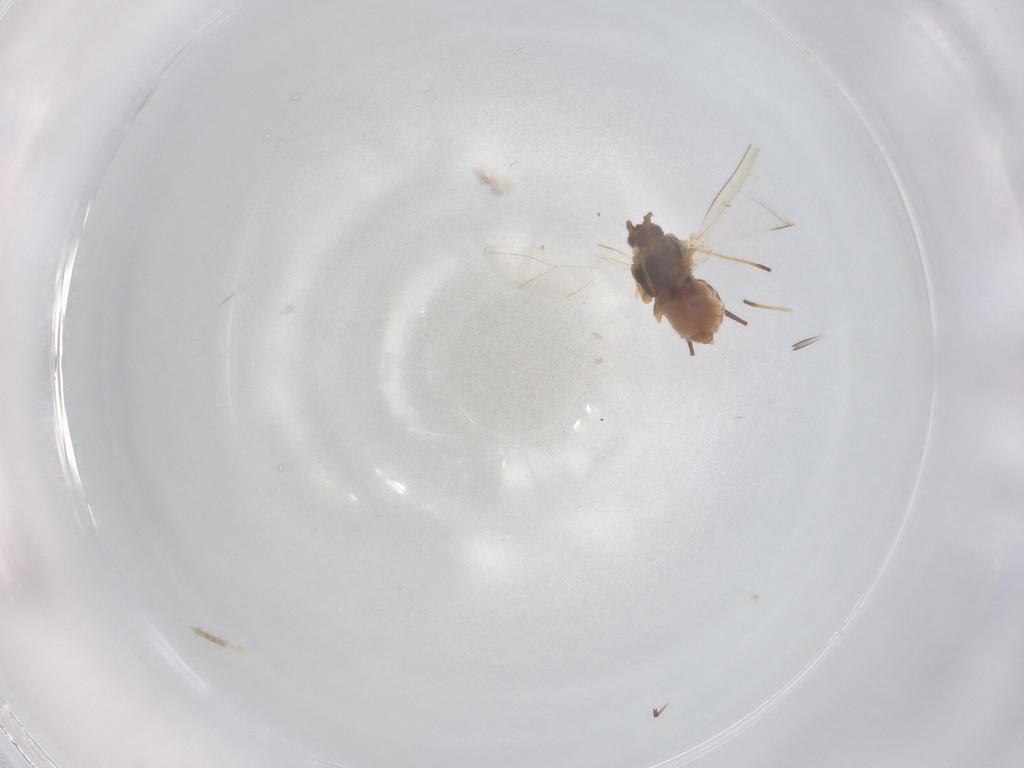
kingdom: Animalia
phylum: Arthropoda
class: Insecta
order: Hemiptera
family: Aphididae
